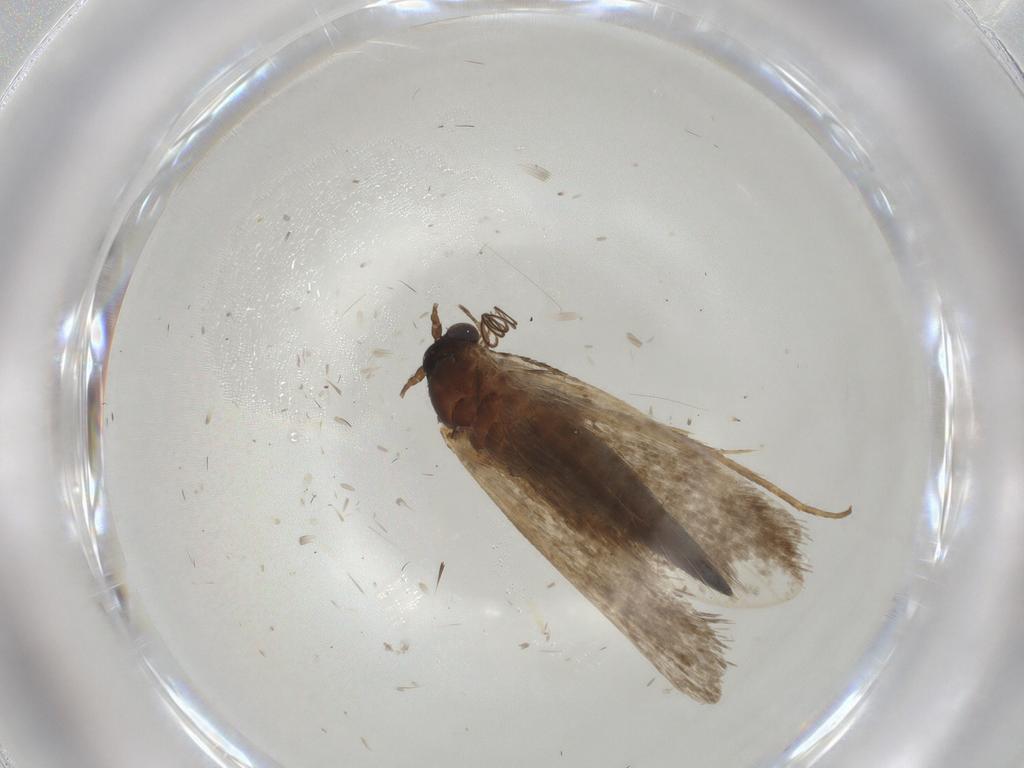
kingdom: Animalia
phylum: Arthropoda
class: Insecta
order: Lepidoptera
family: Adelidae
